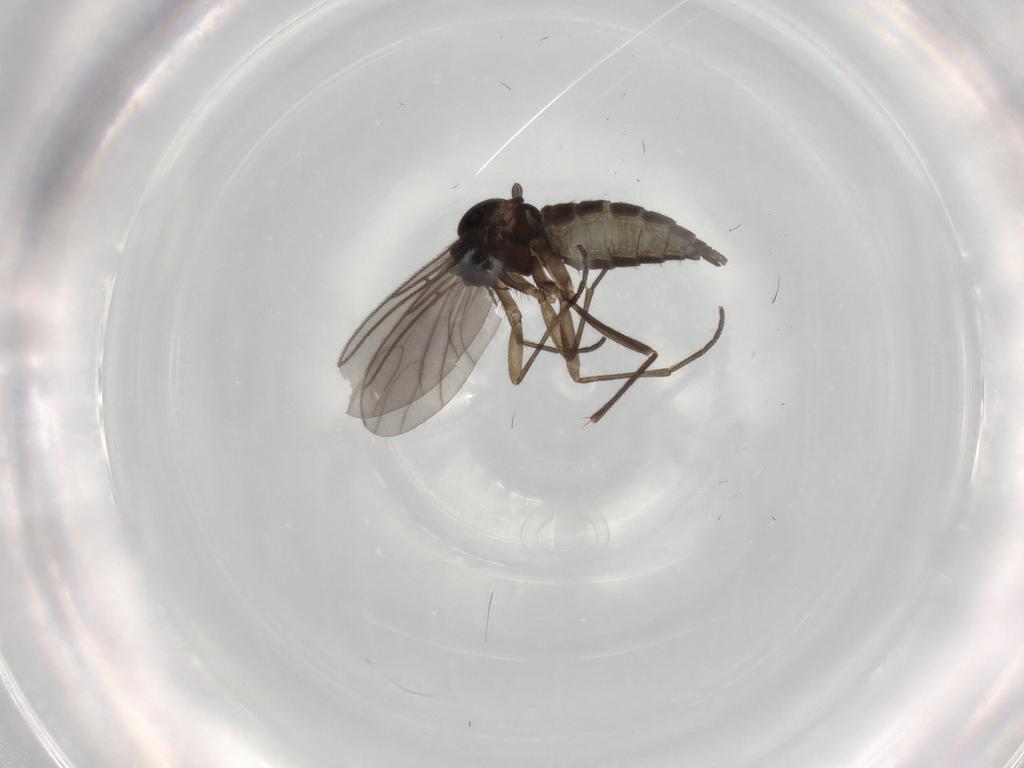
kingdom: Animalia
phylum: Arthropoda
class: Insecta
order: Diptera
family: Sciaridae
